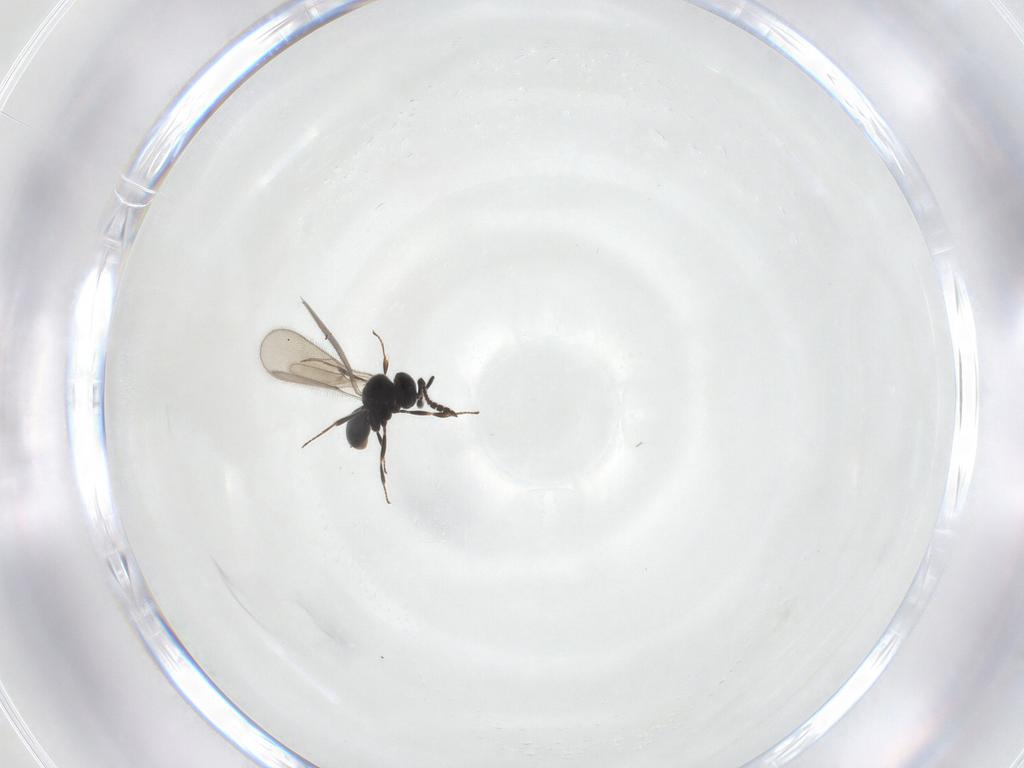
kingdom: Animalia
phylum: Arthropoda
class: Insecta
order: Hymenoptera
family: Scelionidae
